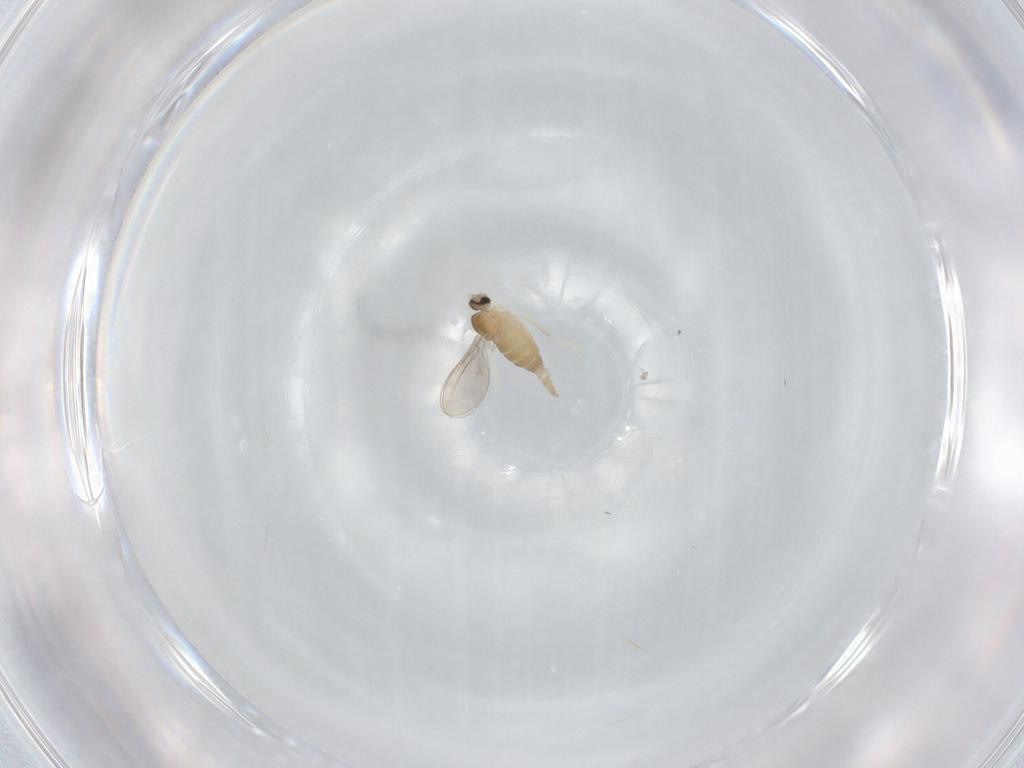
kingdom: Animalia
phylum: Arthropoda
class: Insecta
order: Diptera
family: Cecidomyiidae
